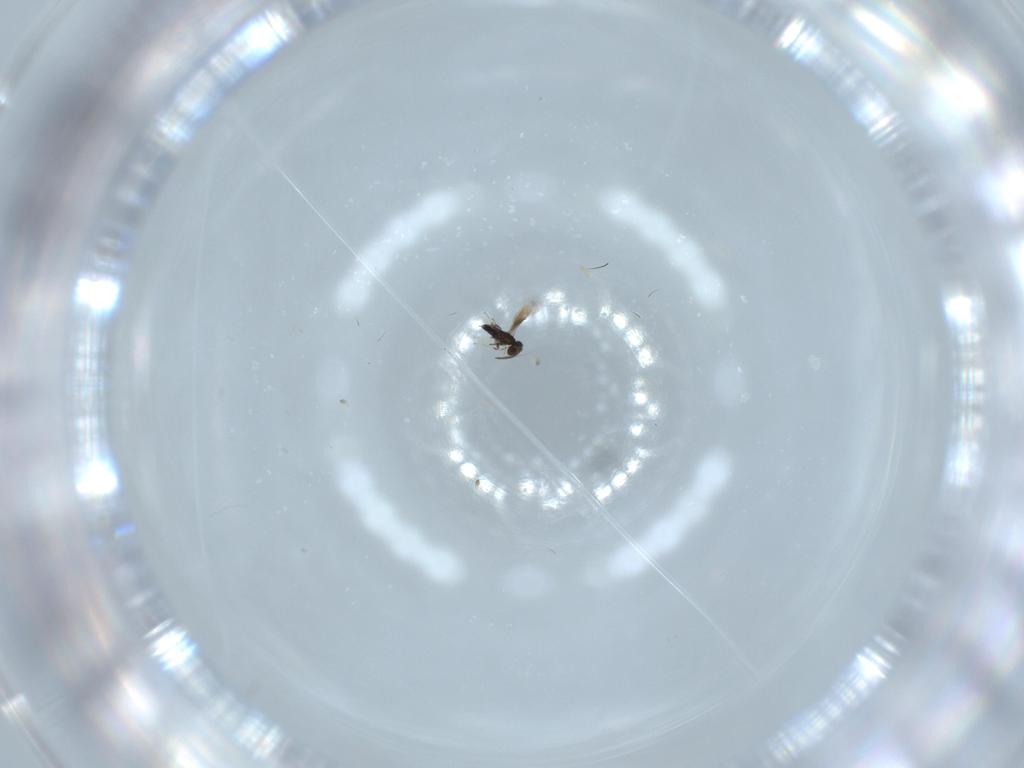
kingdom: Animalia
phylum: Arthropoda
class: Insecta
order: Hymenoptera
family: Signiphoridae
